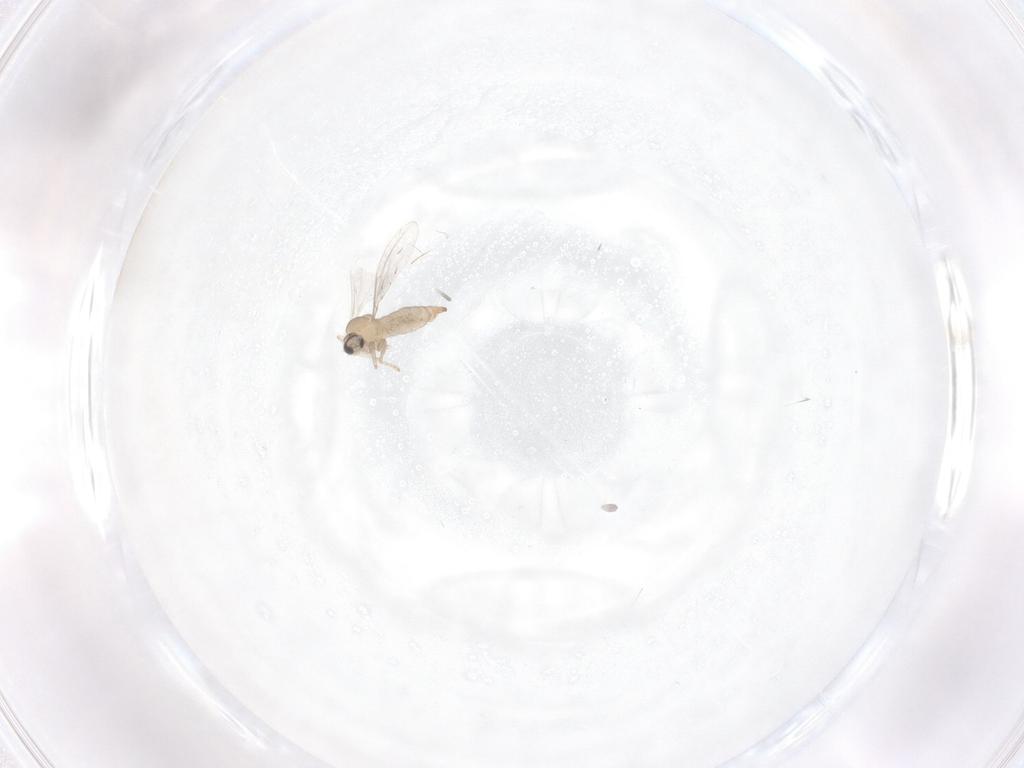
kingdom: Animalia
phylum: Arthropoda
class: Insecta
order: Diptera
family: Cecidomyiidae
